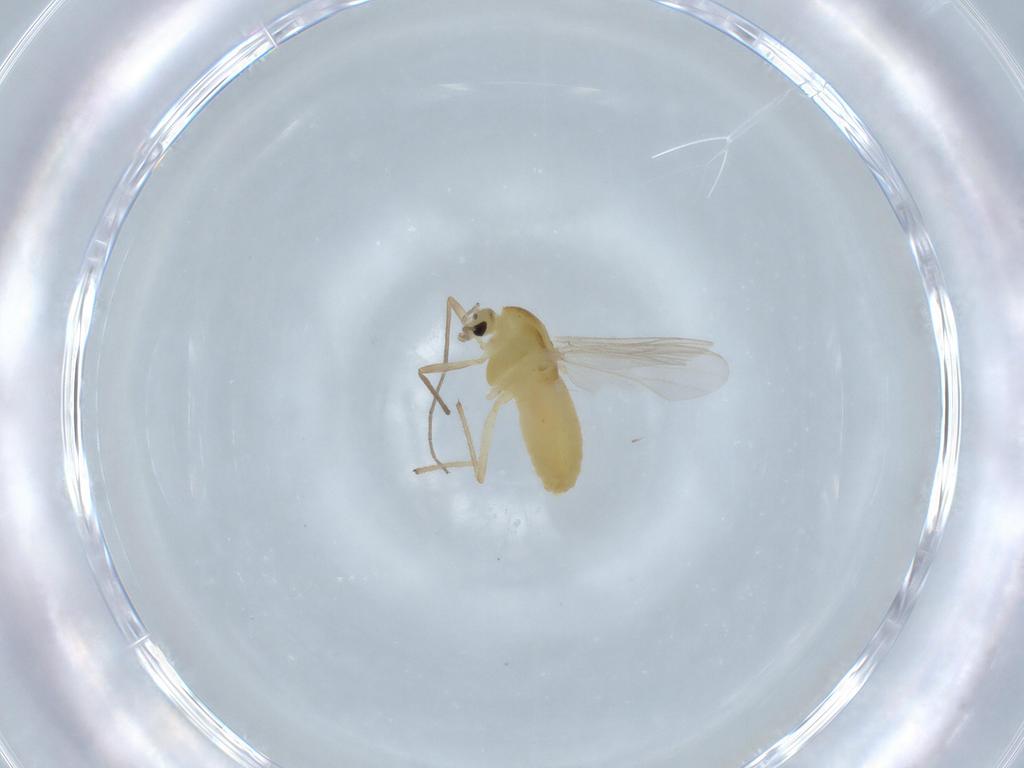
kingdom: Animalia
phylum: Arthropoda
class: Insecta
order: Diptera
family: Chironomidae
